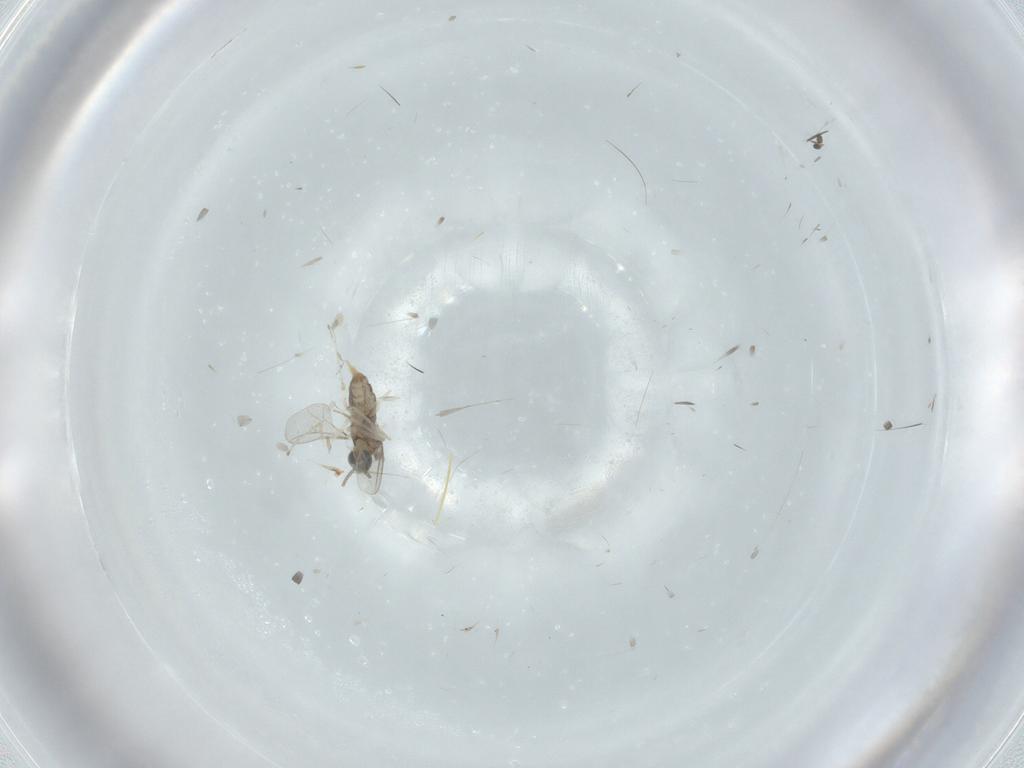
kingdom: Animalia
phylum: Arthropoda
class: Insecta
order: Diptera
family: Cecidomyiidae
